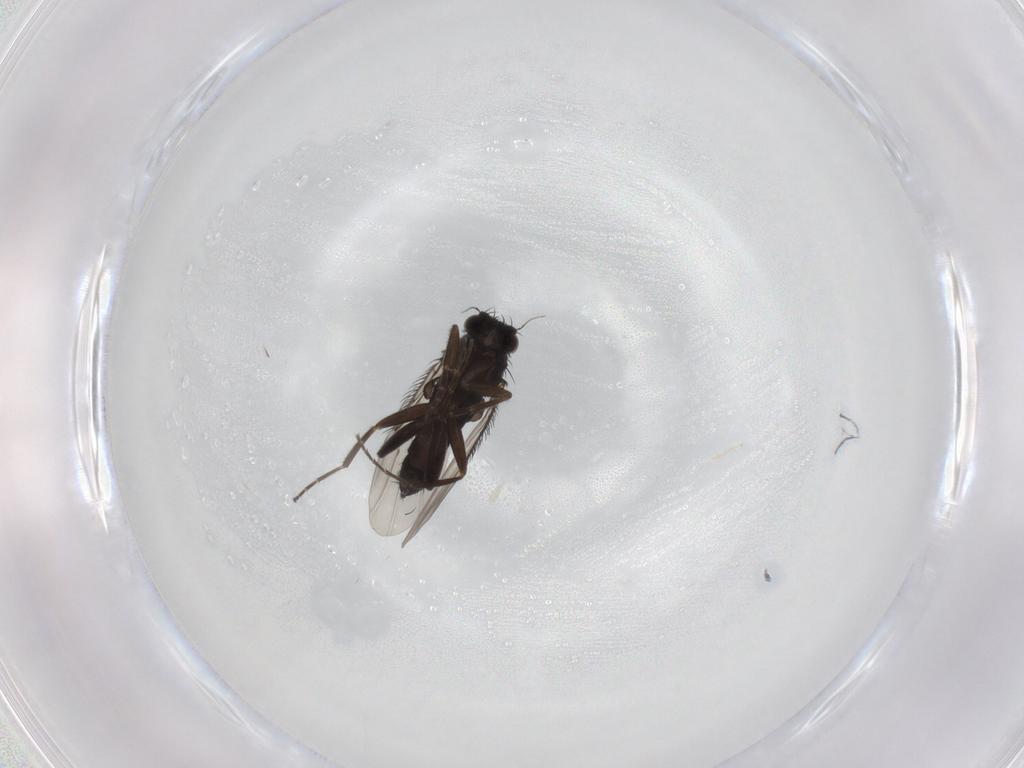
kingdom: Animalia
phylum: Arthropoda
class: Insecta
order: Diptera
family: Phoridae
